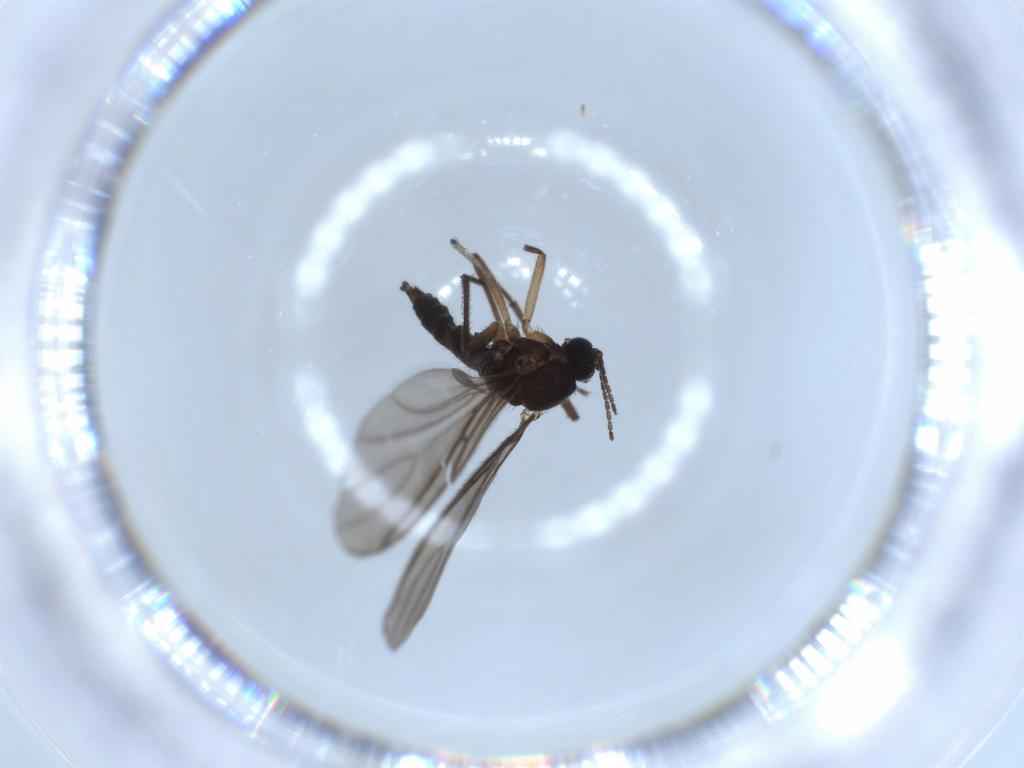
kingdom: Animalia
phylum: Arthropoda
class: Insecta
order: Diptera
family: Sciaridae
